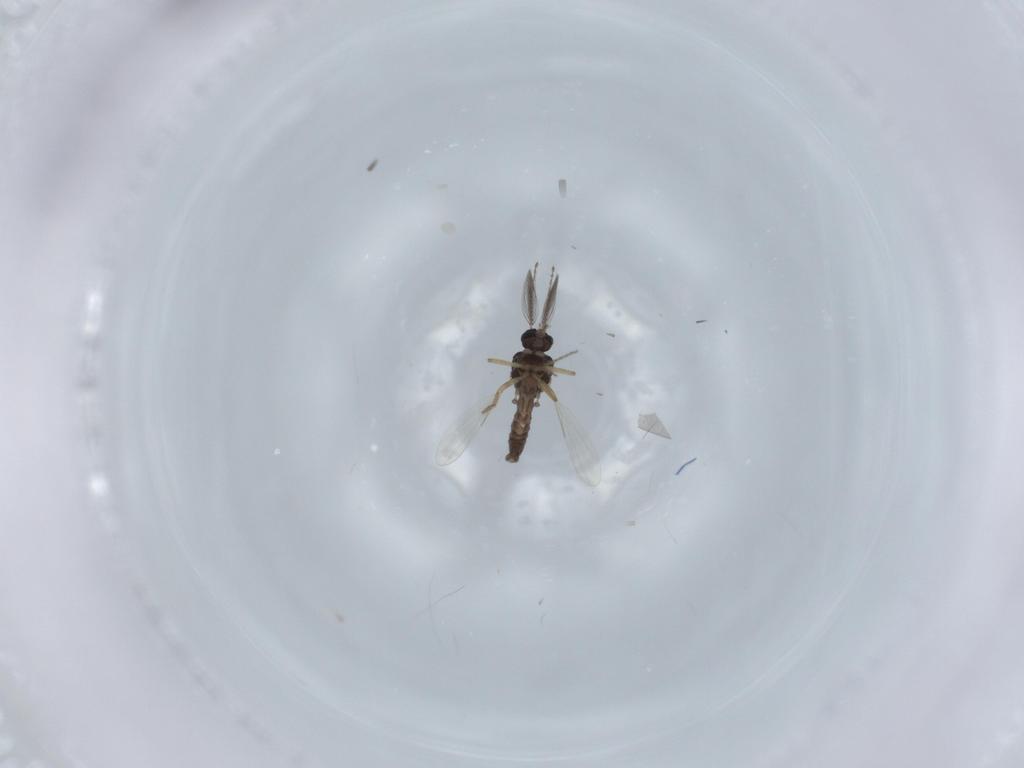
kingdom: Animalia
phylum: Arthropoda
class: Insecta
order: Diptera
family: Ceratopogonidae
